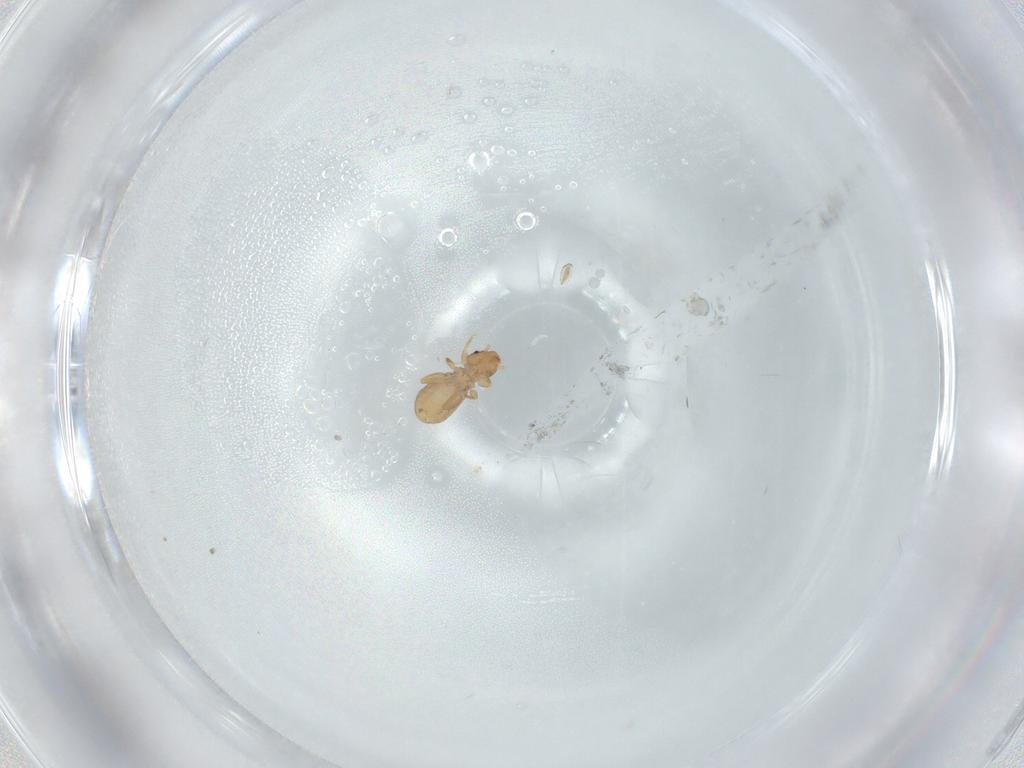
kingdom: Animalia
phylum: Arthropoda
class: Insecta
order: Psocodea
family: Liposcelididae
